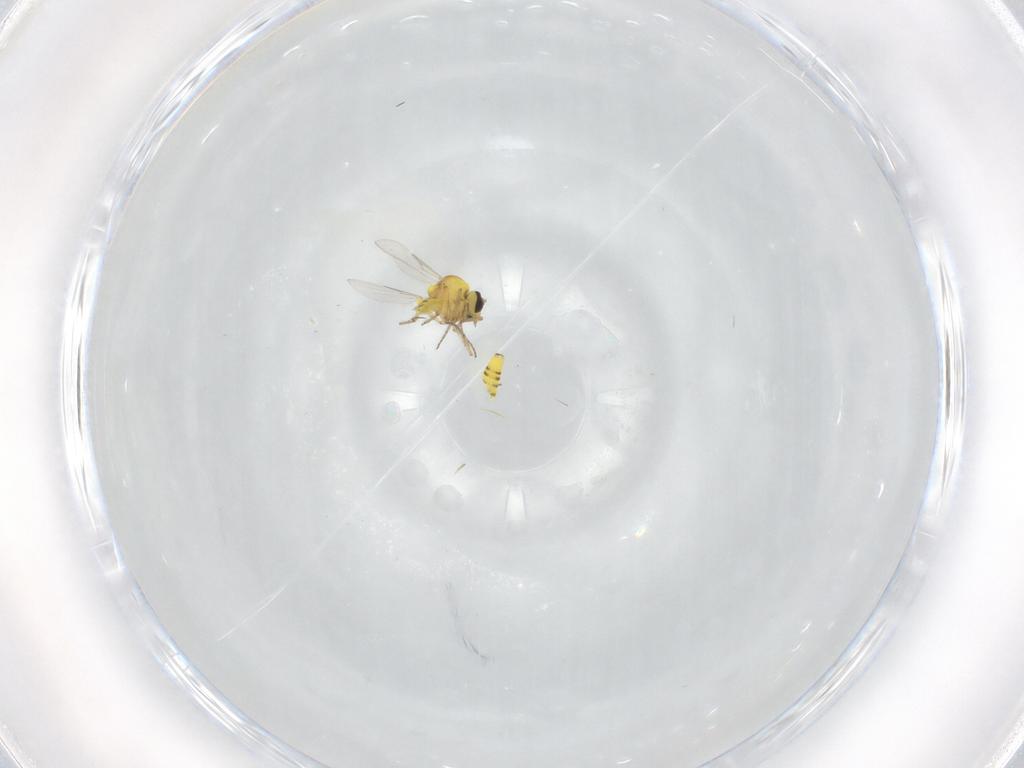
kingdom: Animalia
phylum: Arthropoda
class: Insecta
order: Diptera
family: Ceratopogonidae
